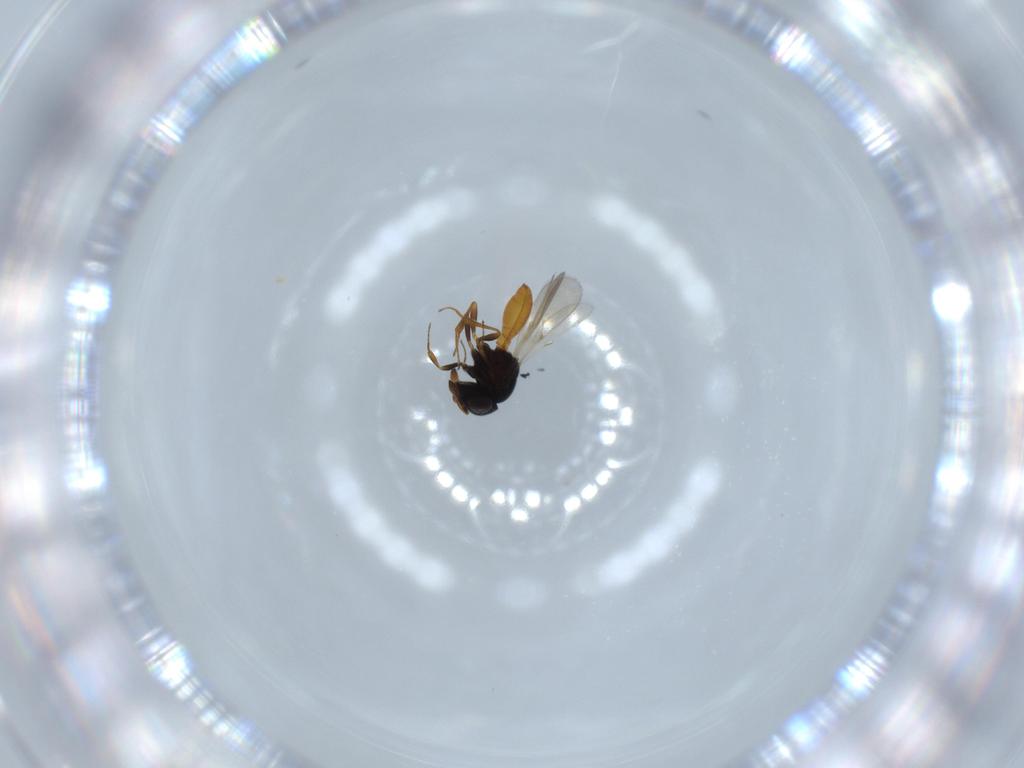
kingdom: Animalia
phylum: Arthropoda
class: Insecta
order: Hymenoptera
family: Scelionidae
